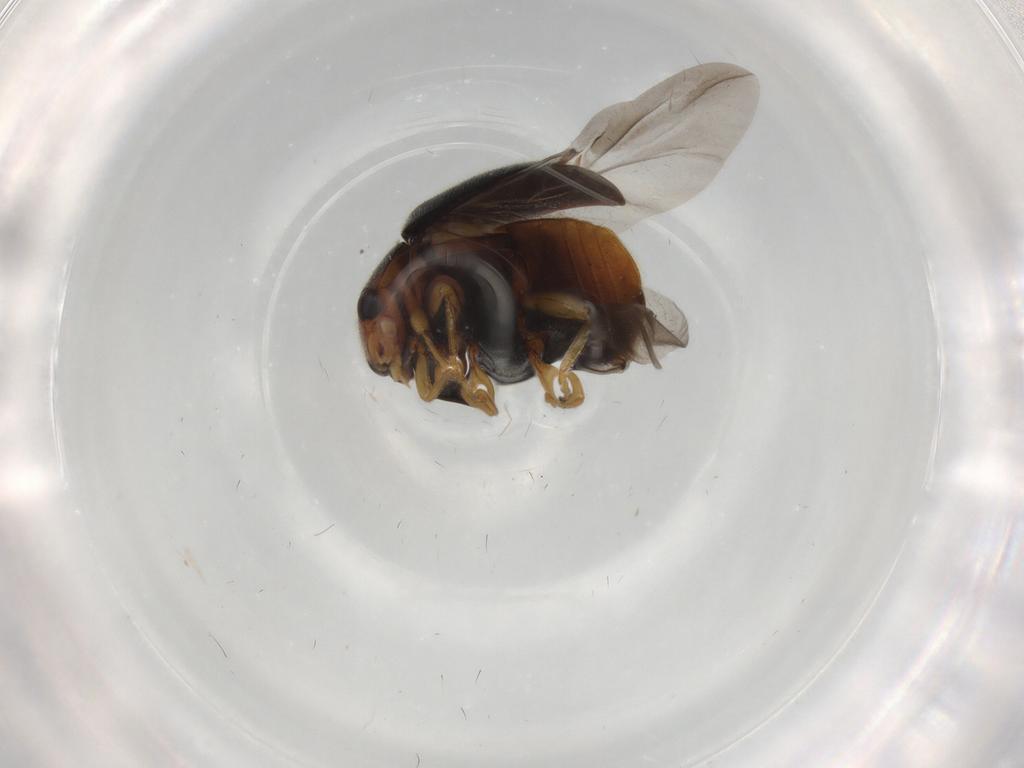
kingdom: Animalia
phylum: Arthropoda
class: Insecta
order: Coleoptera
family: Coccinellidae
